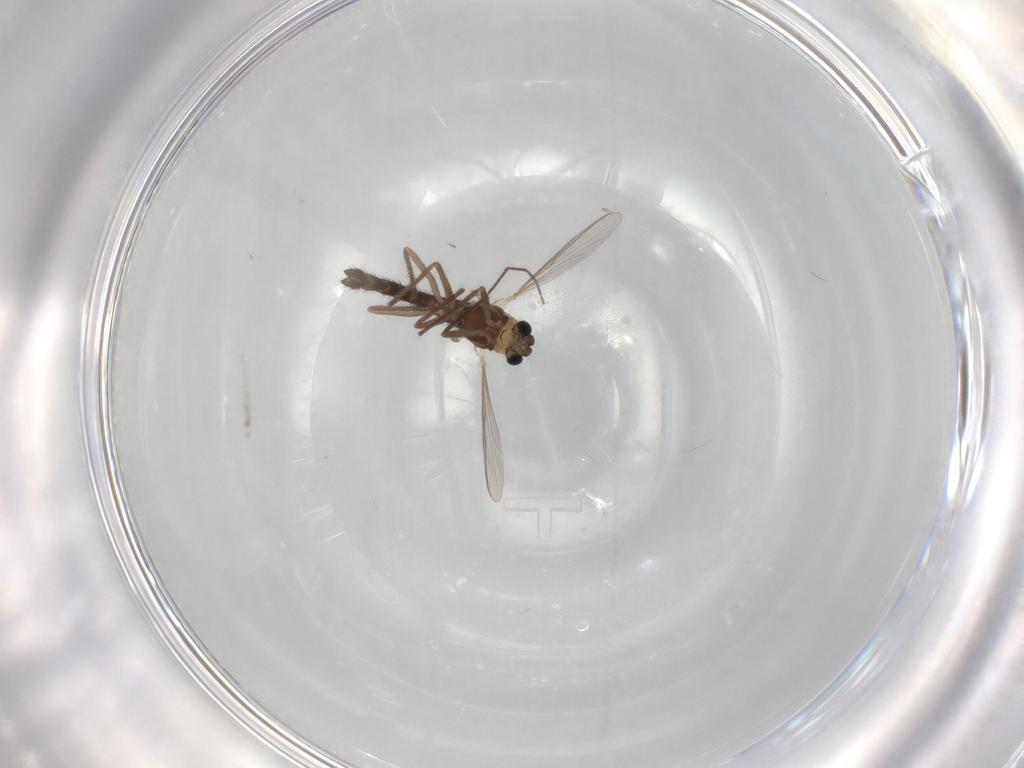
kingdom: Animalia
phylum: Arthropoda
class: Insecta
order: Diptera
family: Chironomidae
